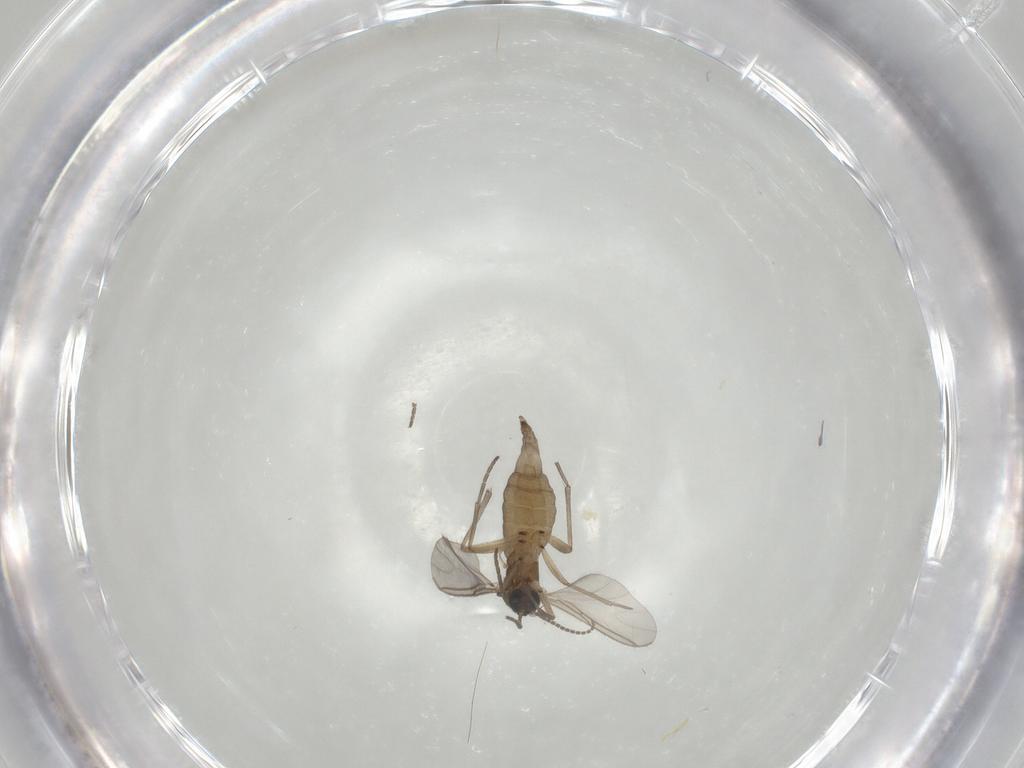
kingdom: Animalia
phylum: Arthropoda
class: Insecta
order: Diptera
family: Sciaridae
